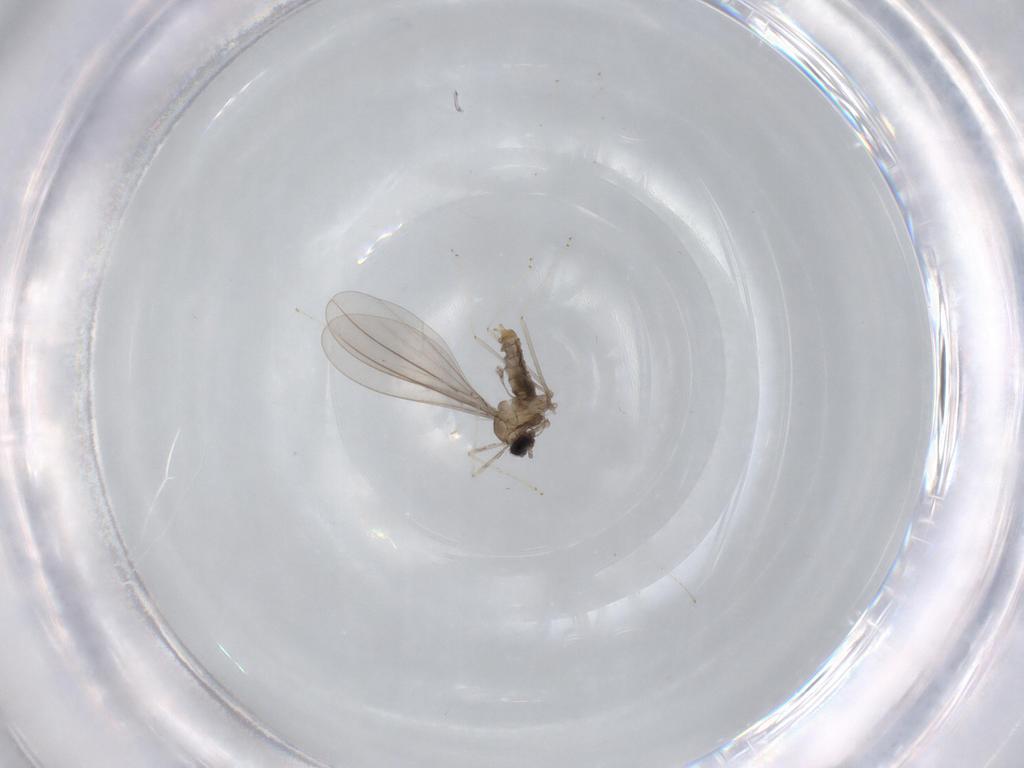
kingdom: Animalia
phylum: Arthropoda
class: Insecta
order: Diptera
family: Cecidomyiidae
